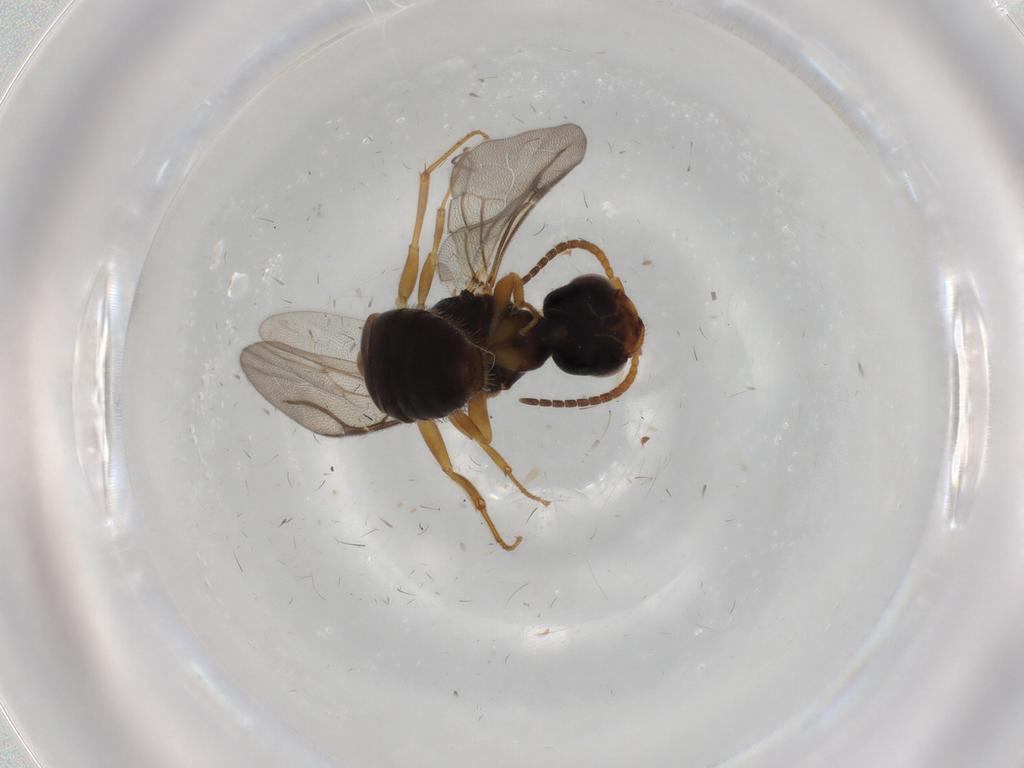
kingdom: Animalia
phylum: Arthropoda
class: Insecta
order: Hymenoptera
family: Bethylidae
